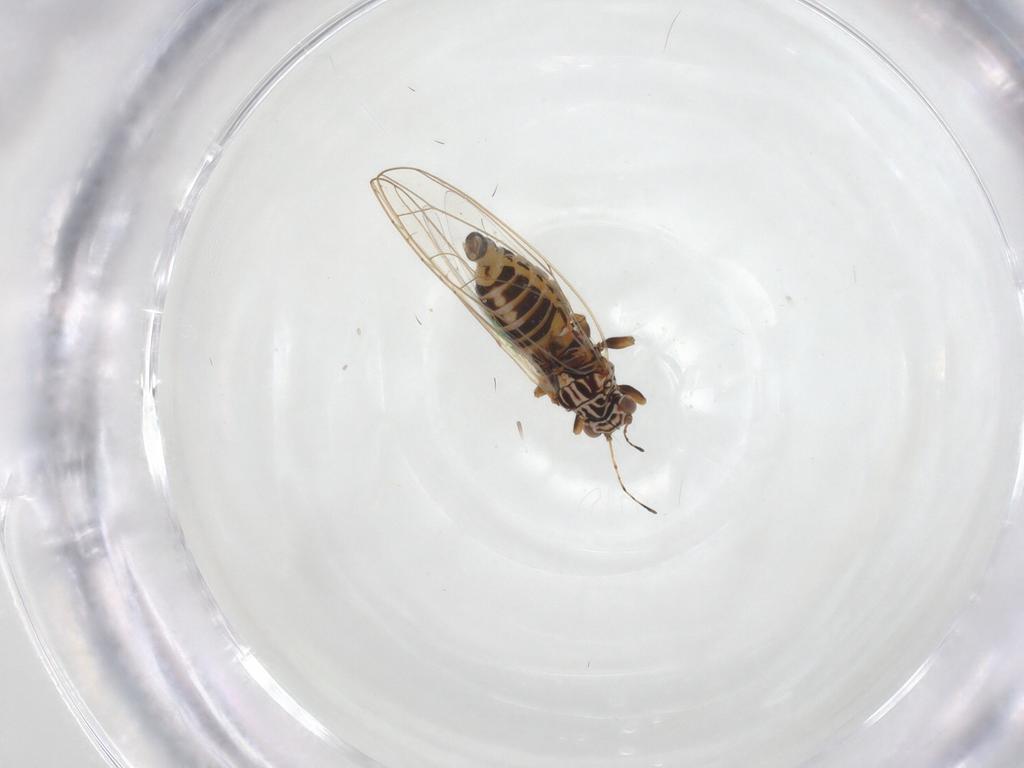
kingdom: Animalia
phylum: Arthropoda
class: Insecta
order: Hemiptera
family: Triozidae
